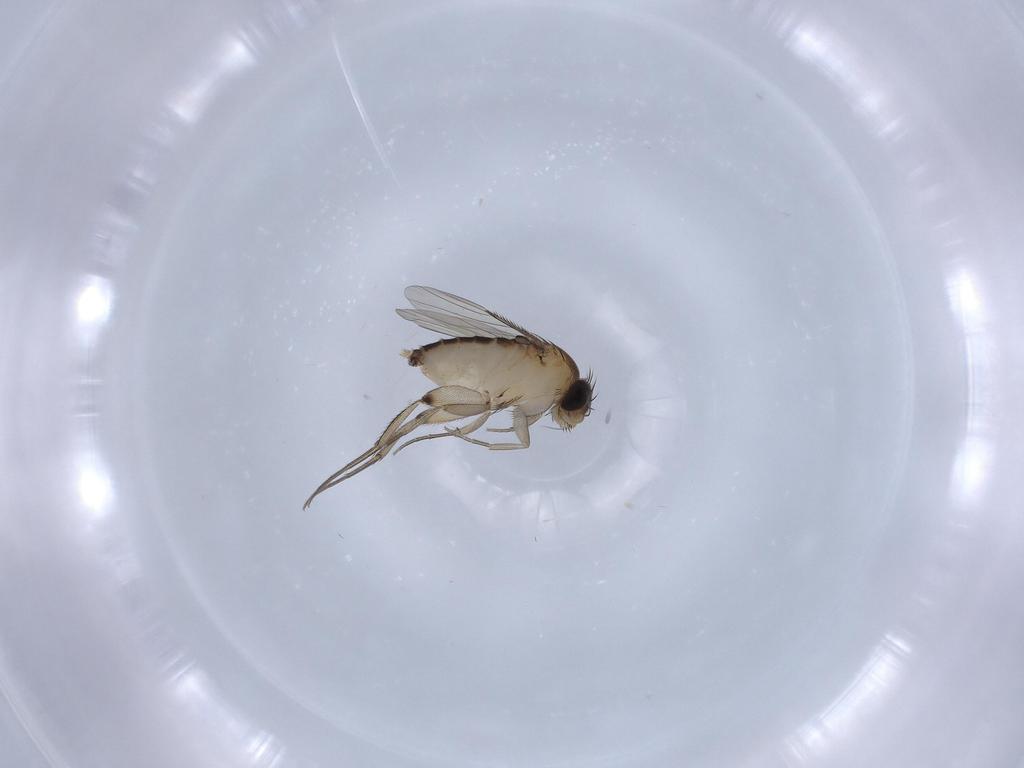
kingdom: Animalia
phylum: Arthropoda
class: Insecta
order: Diptera
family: Phoridae
